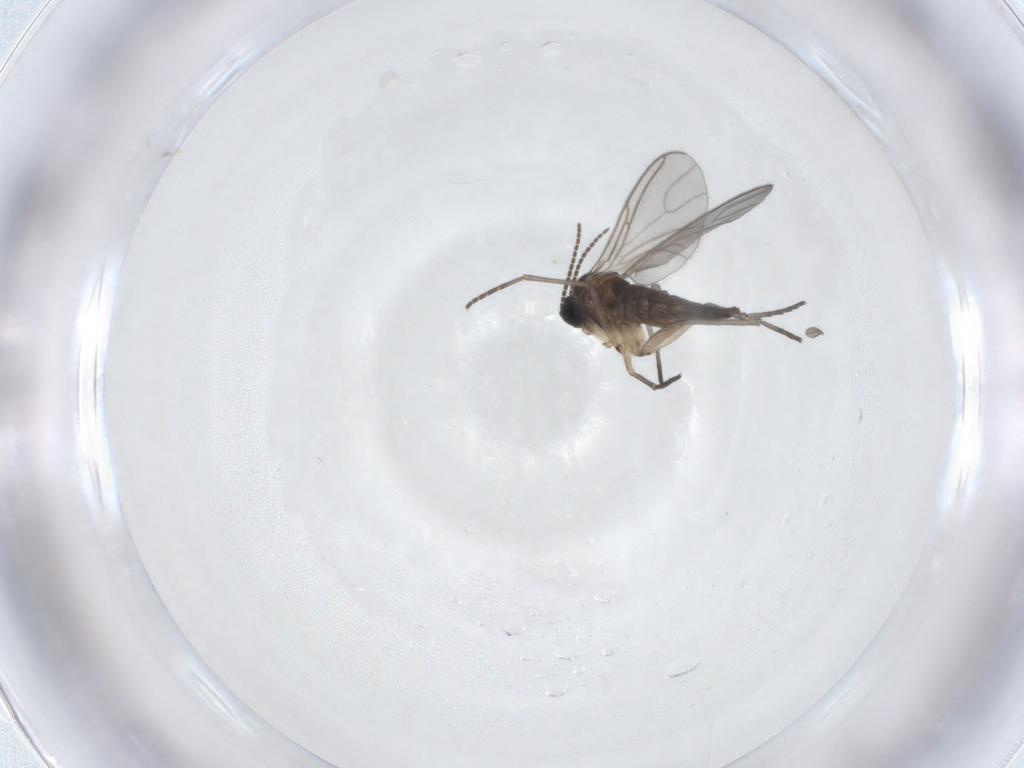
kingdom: Animalia
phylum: Arthropoda
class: Insecta
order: Diptera
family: Sciaridae
